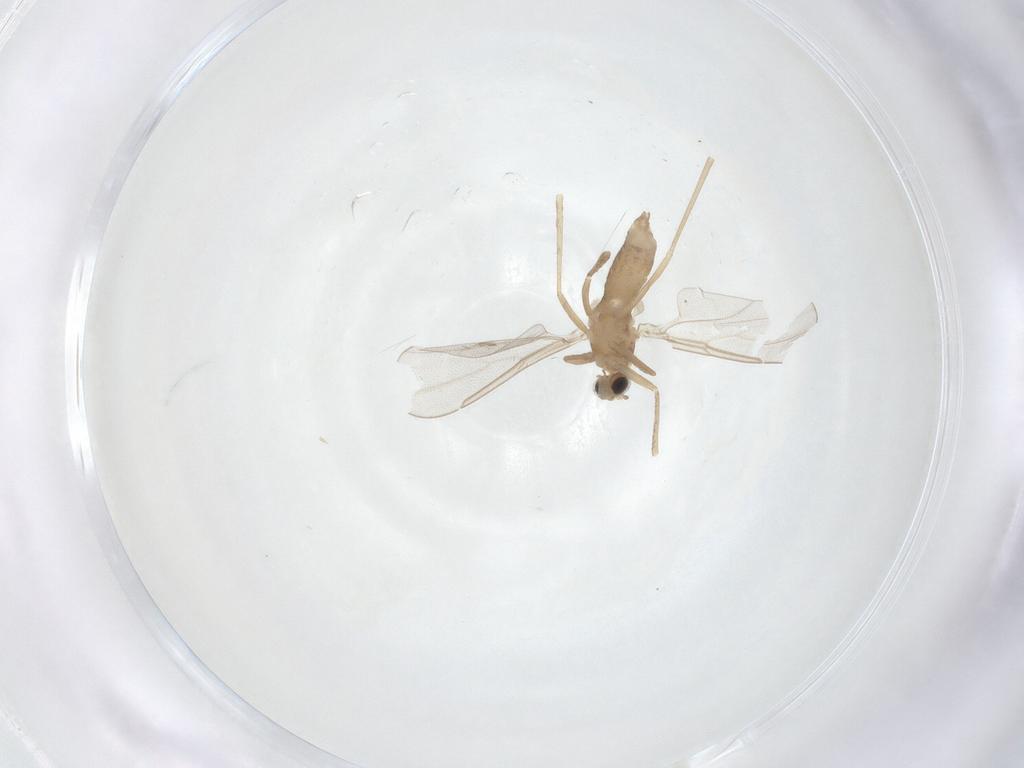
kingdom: Animalia
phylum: Arthropoda
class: Insecta
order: Diptera
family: Cecidomyiidae
